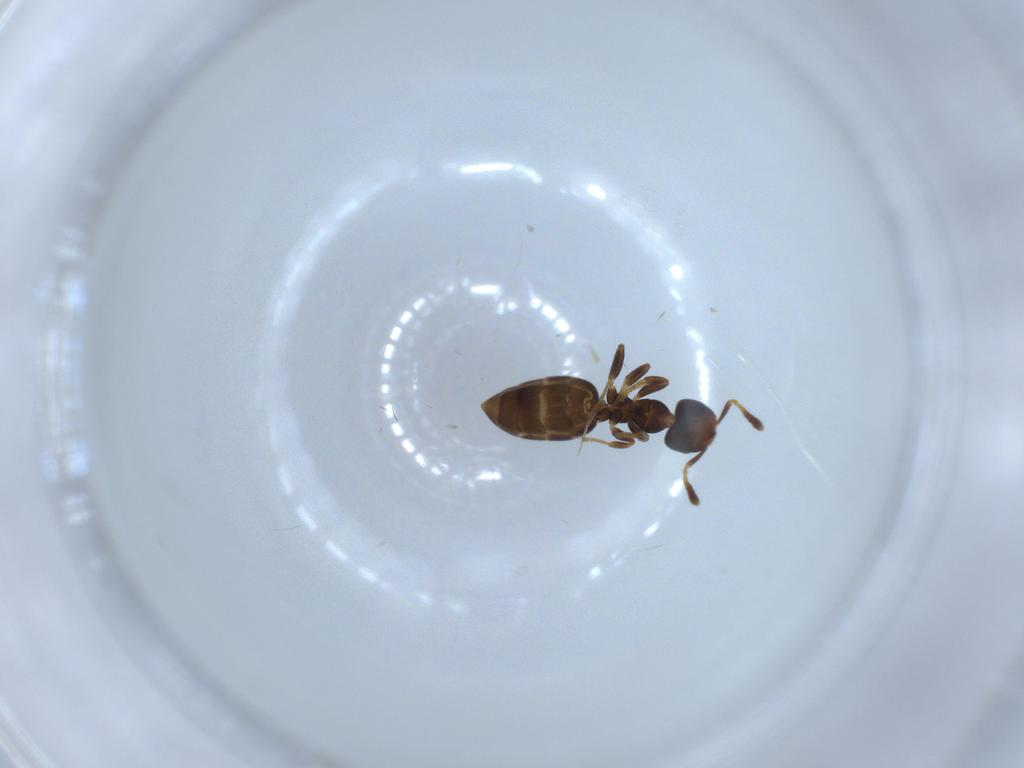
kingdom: Animalia
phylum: Arthropoda
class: Insecta
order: Hymenoptera
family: Formicidae
